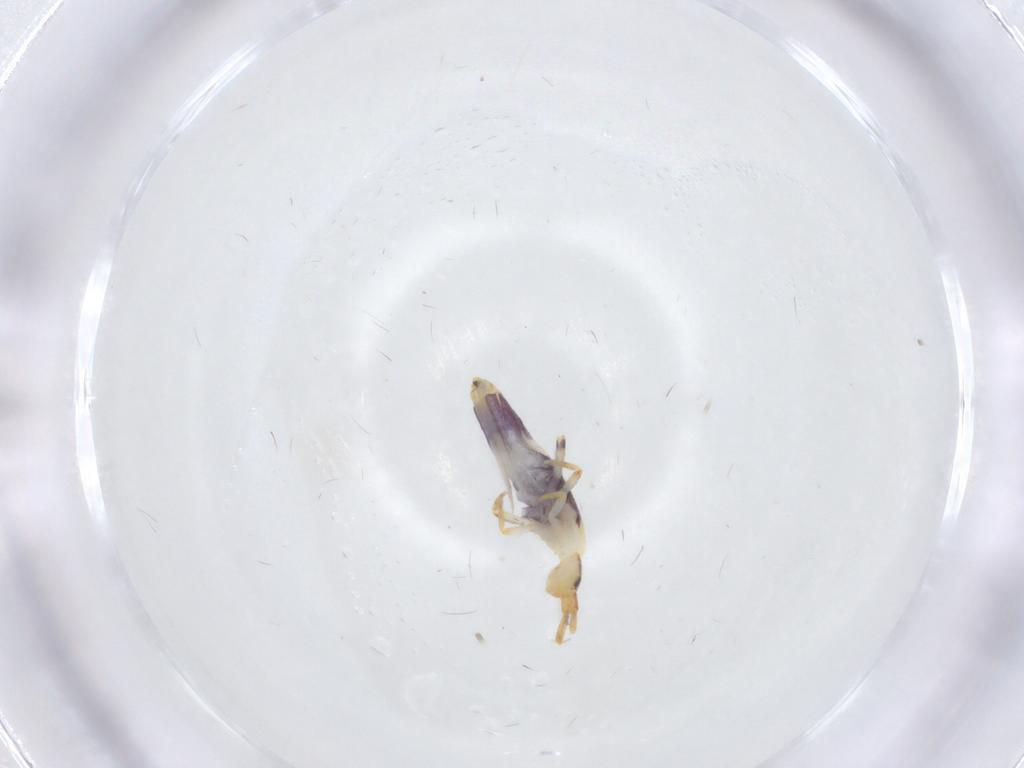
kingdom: Animalia
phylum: Arthropoda
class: Collembola
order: Entomobryomorpha
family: Entomobryidae
